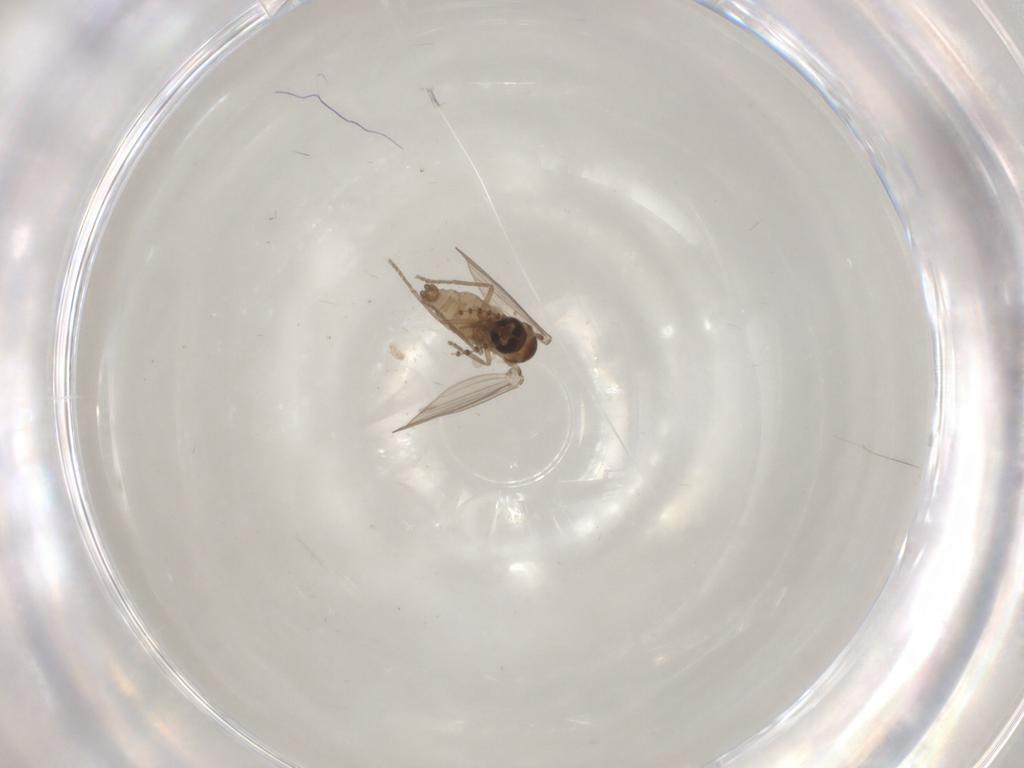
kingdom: Animalia
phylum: Arthropoda
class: Insecta
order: Diptera
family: Psychodidae
